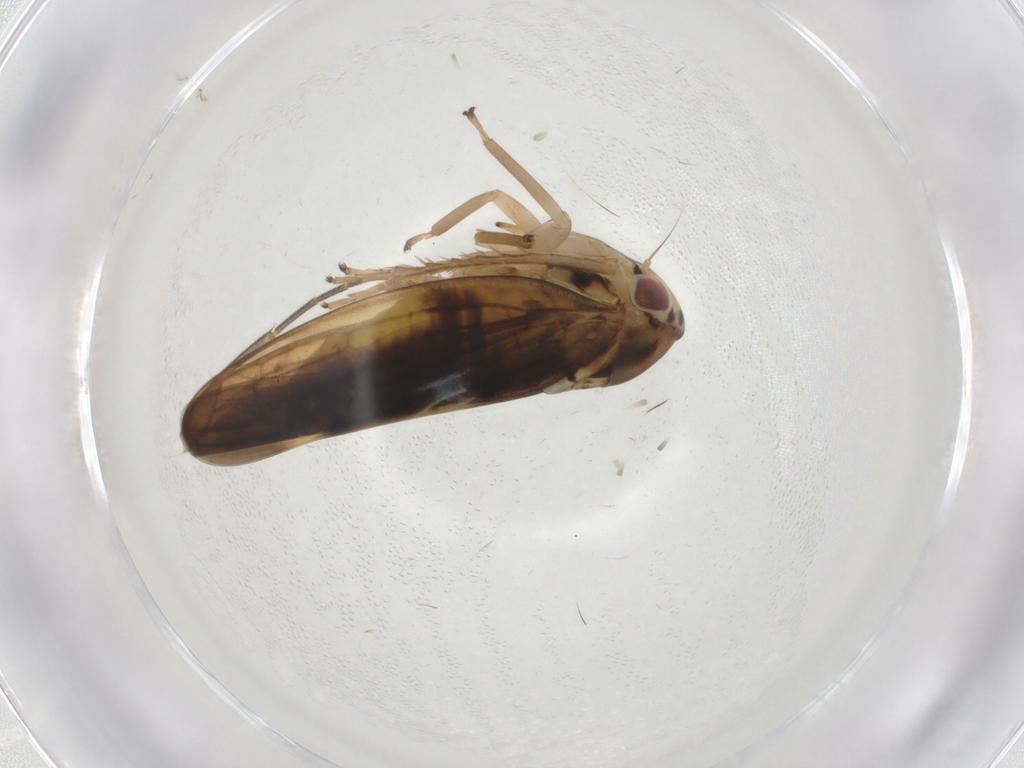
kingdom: Animalia
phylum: Arthropoda
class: Insecta
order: Hemiptera
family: Cicadellidae
